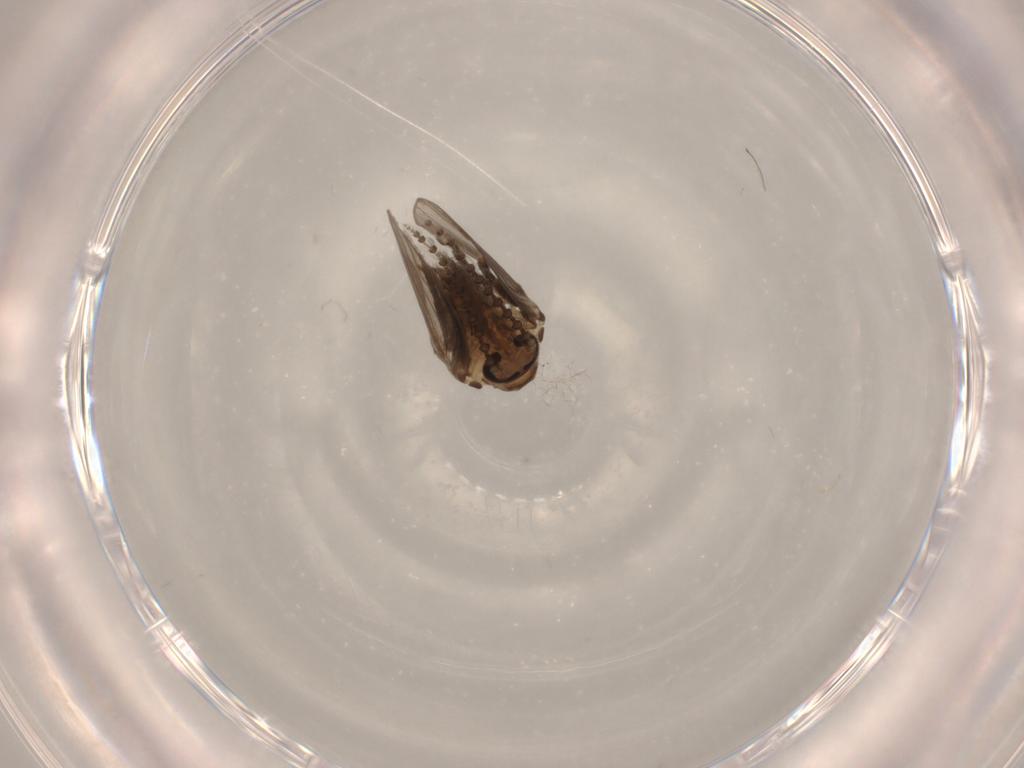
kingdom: Animalia
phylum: Arthropoda
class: Insecta
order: Diptera
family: Psychodidae
